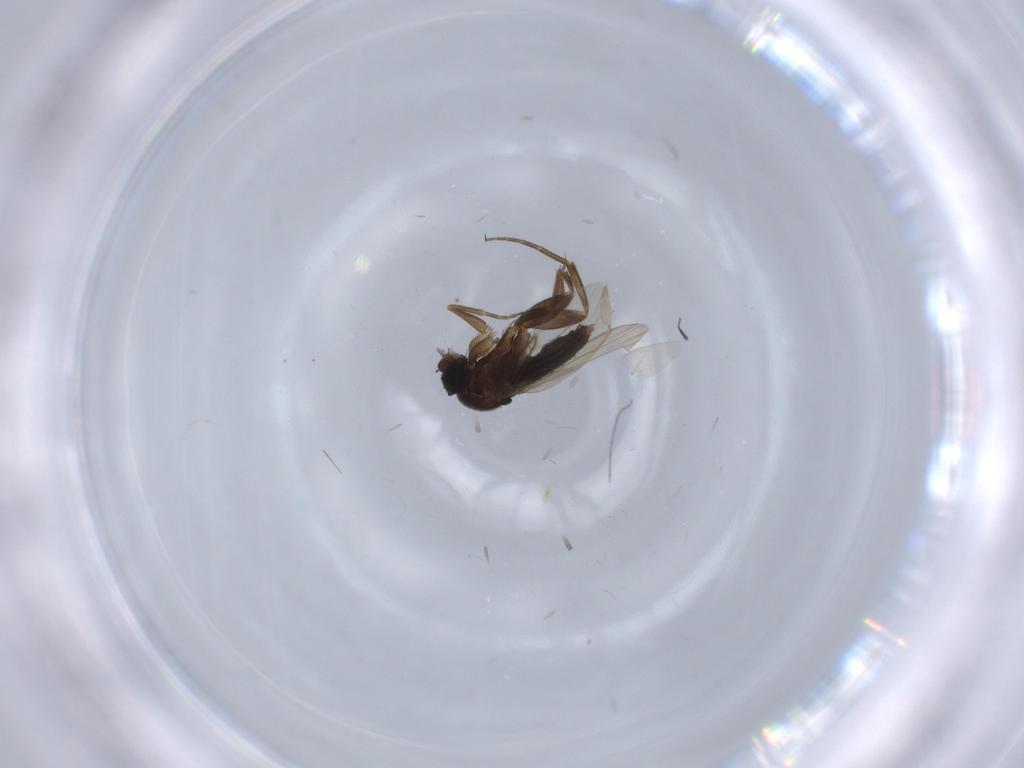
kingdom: Animalia
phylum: Arthropoda
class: Insecta
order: Diptera
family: Phoridae
